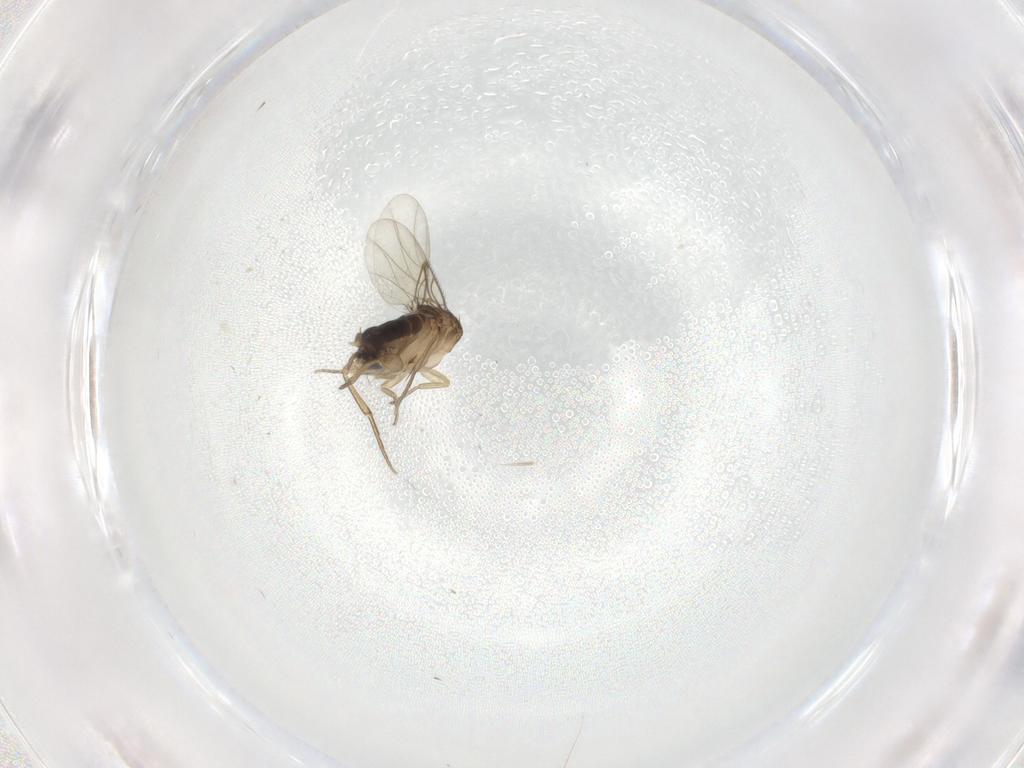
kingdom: Animalia
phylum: Arthropoda
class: Insecta
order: Diptera
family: Cecidomyiidae
